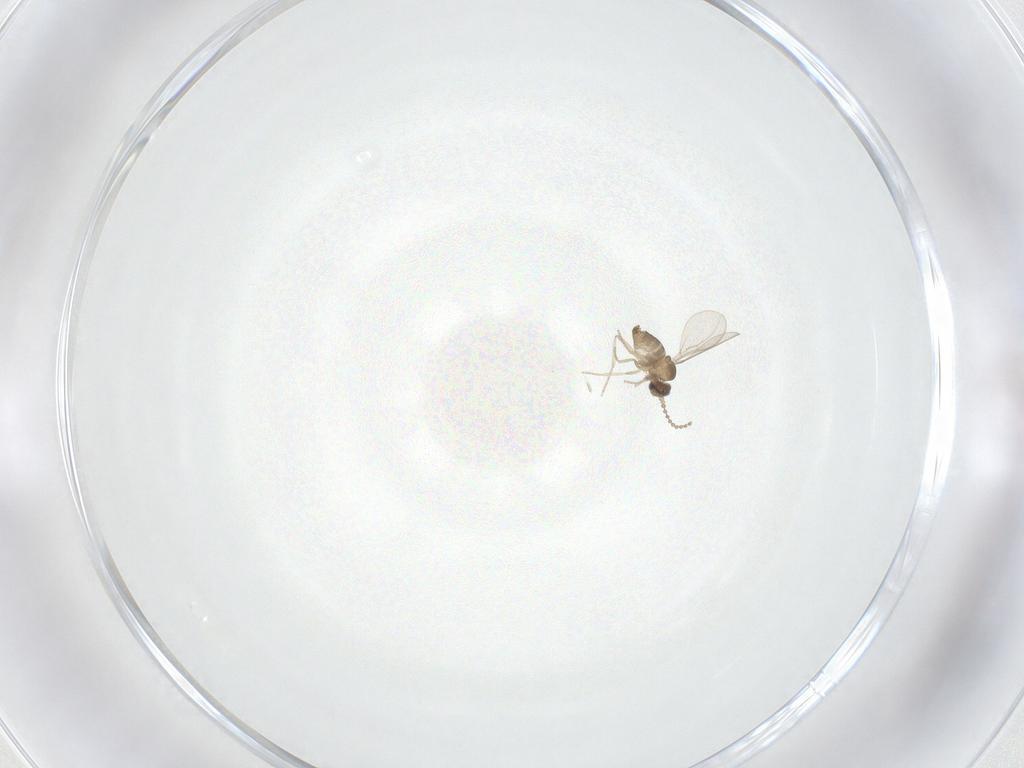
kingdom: Animalia
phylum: Arthropoda
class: Insecta
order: Diptera
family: Cecidomyiidae
